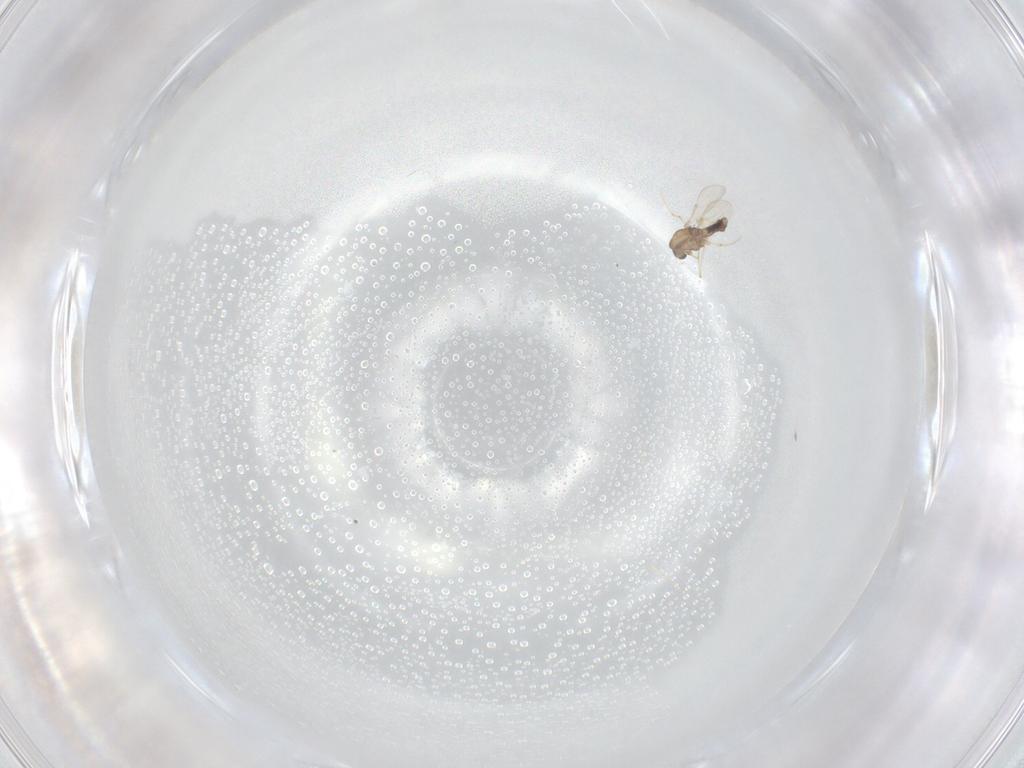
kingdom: Animalia
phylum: Arthropoda
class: Insecta
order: Diptera
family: Chironomidae
